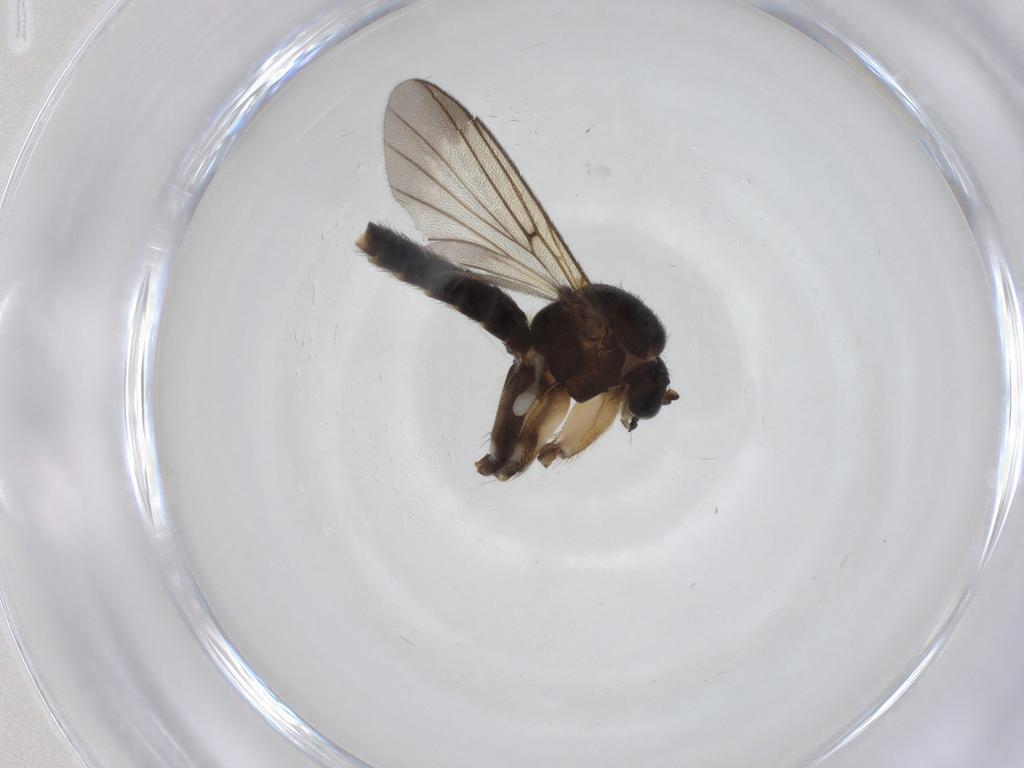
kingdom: Animalia
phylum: Arthropoda
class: Insecta
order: Diptera
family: Mycetophilidae
